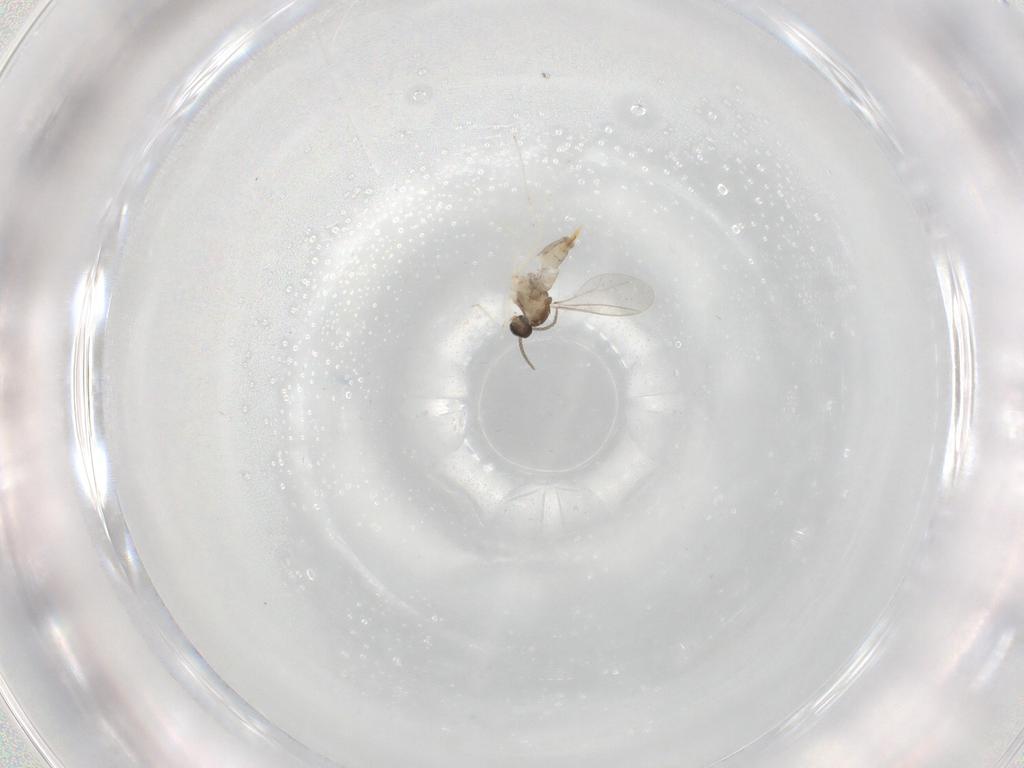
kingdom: Animalia
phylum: Arthropoda
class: Insecta
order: Diptera
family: Cecidomyiidae
